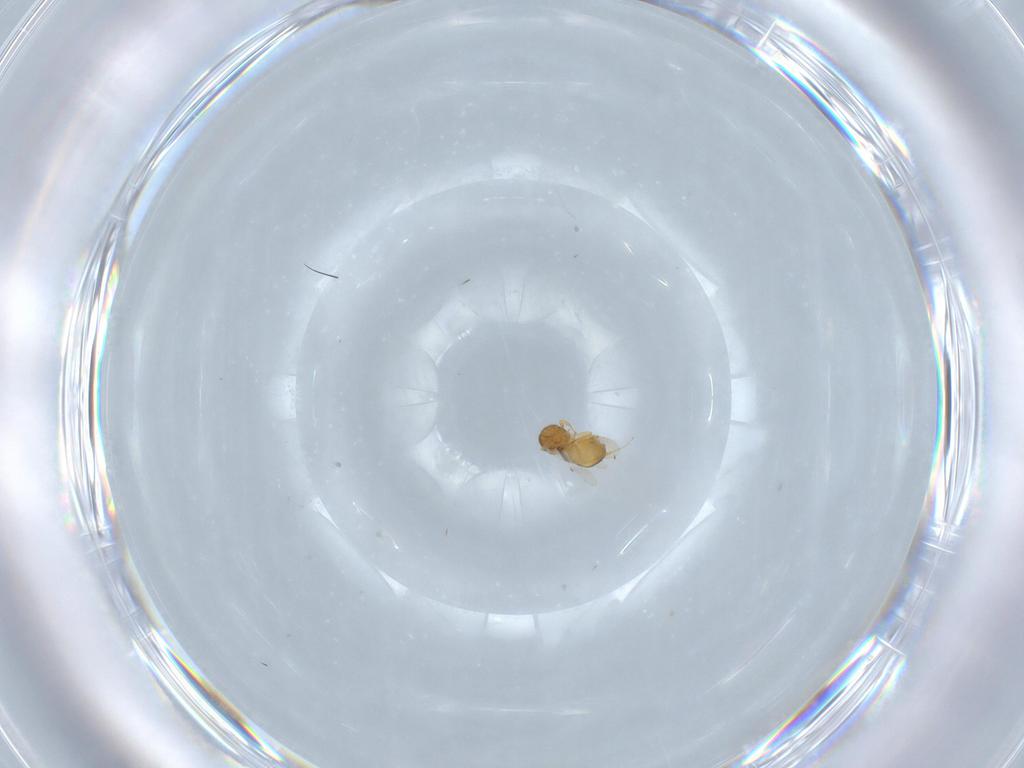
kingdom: Animalia
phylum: Arthropoda
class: Insecta
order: Hymenoptera
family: Scelionidae
